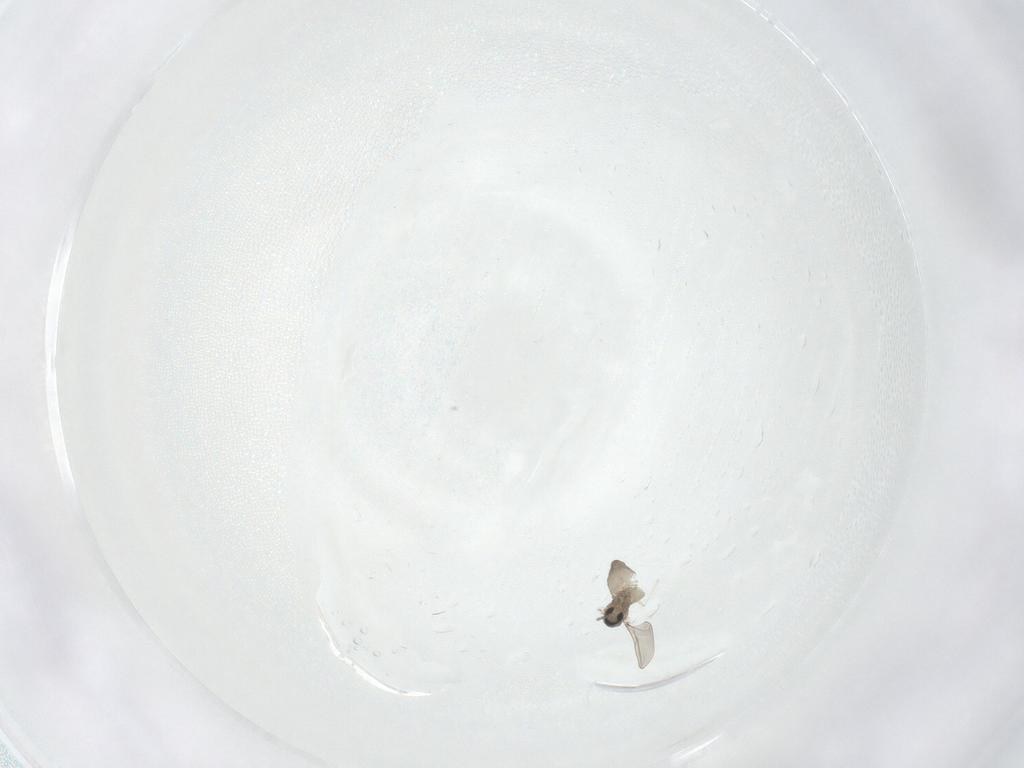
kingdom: Animalia
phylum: Arthropoda
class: Insecta
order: Diptera
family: Cecidomyiidae
